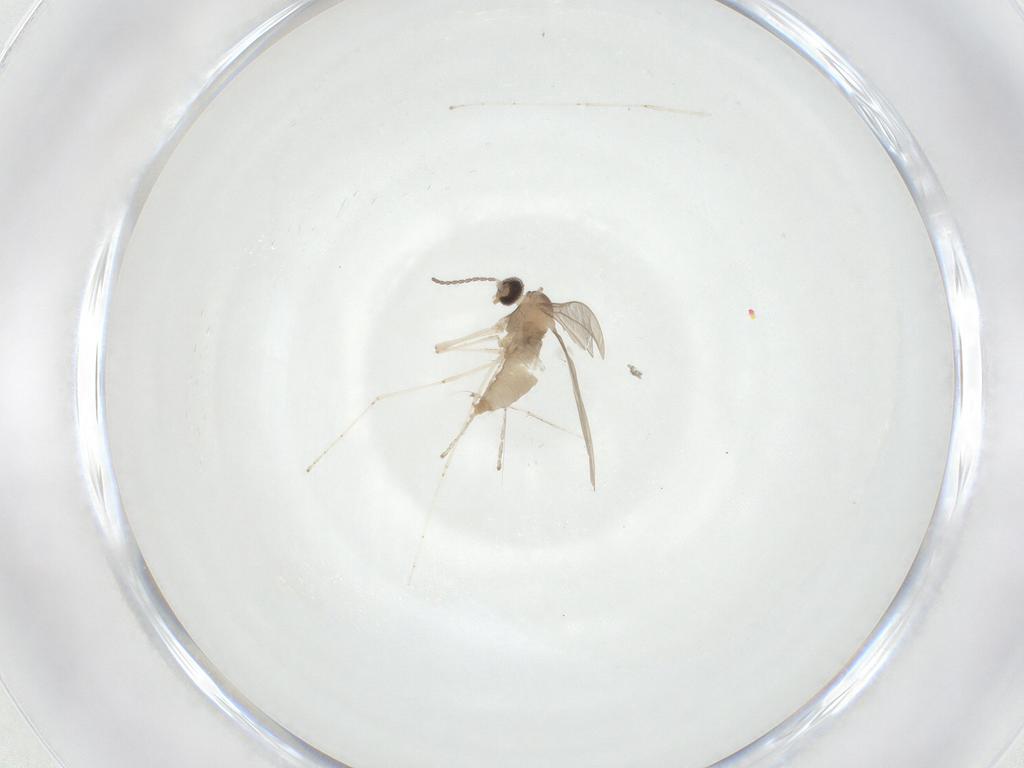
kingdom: Animalia
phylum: Arthropoda
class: Insecta
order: Diptera
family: Cecidomyiidae
